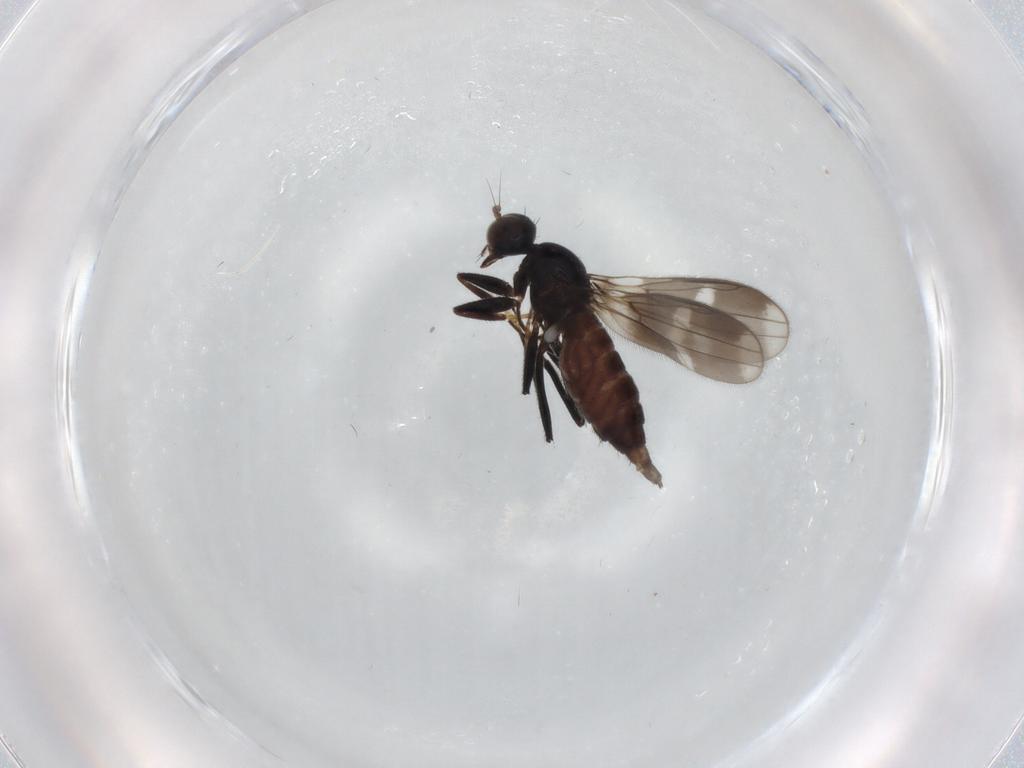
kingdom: Animalia
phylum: Arthropoda
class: Insecta
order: Diptera
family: Hybotidae
